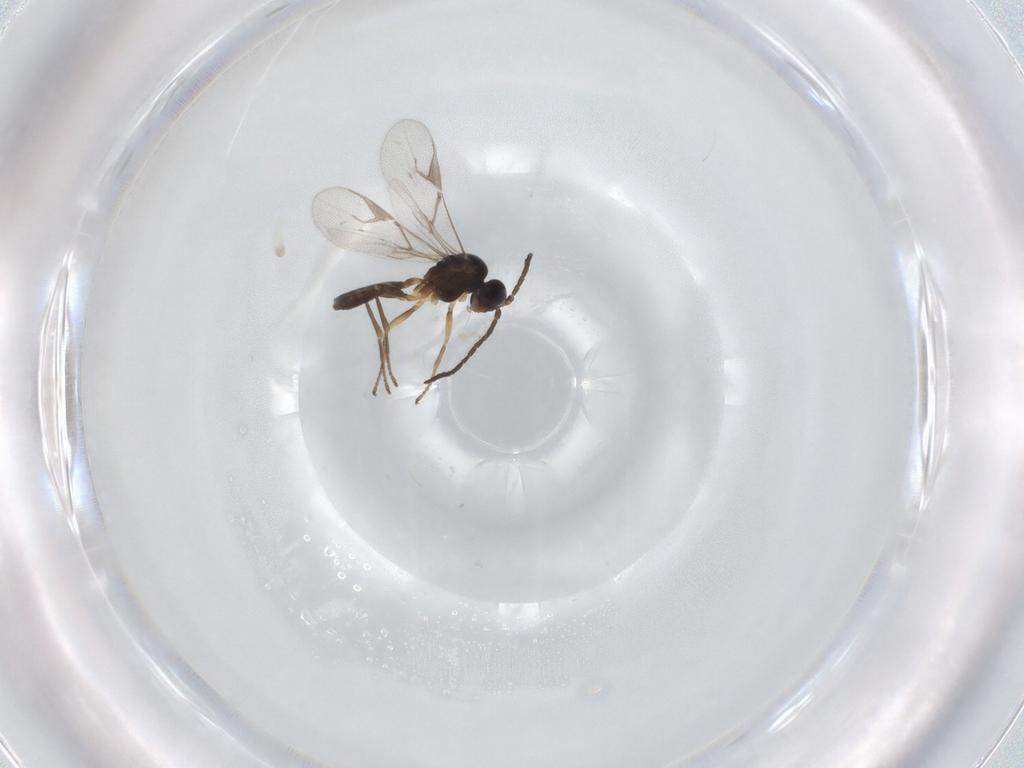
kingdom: Animalia
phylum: Arthropoda
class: Insecta
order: Hymenoptera
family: Braconidae
